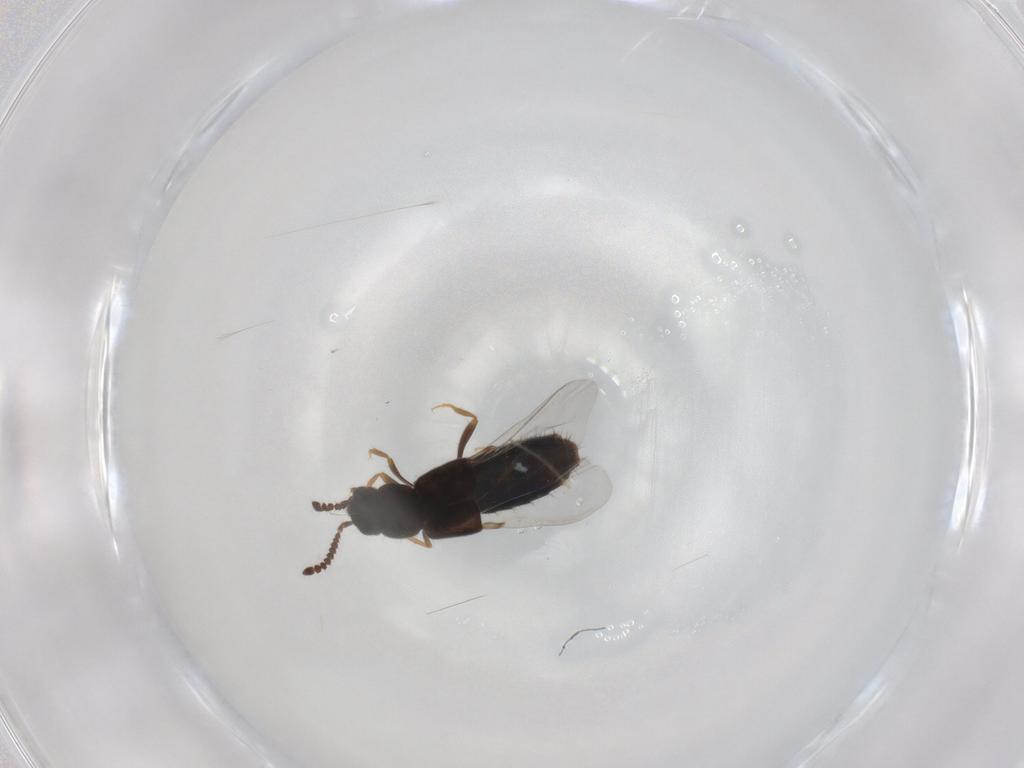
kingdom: Animalia
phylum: Arthropoda
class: Insecta
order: Coleoptera
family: Staphylinidae
